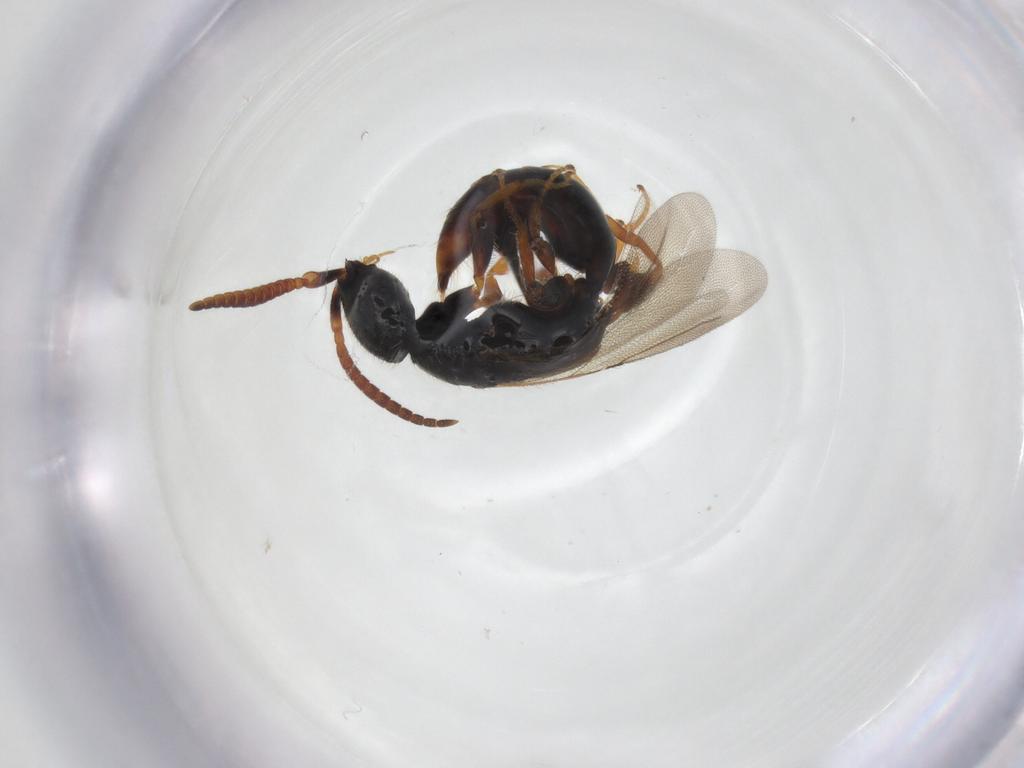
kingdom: Animalia
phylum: Arthropoda
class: Insecta
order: Hymenoptera
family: Bethylidae
